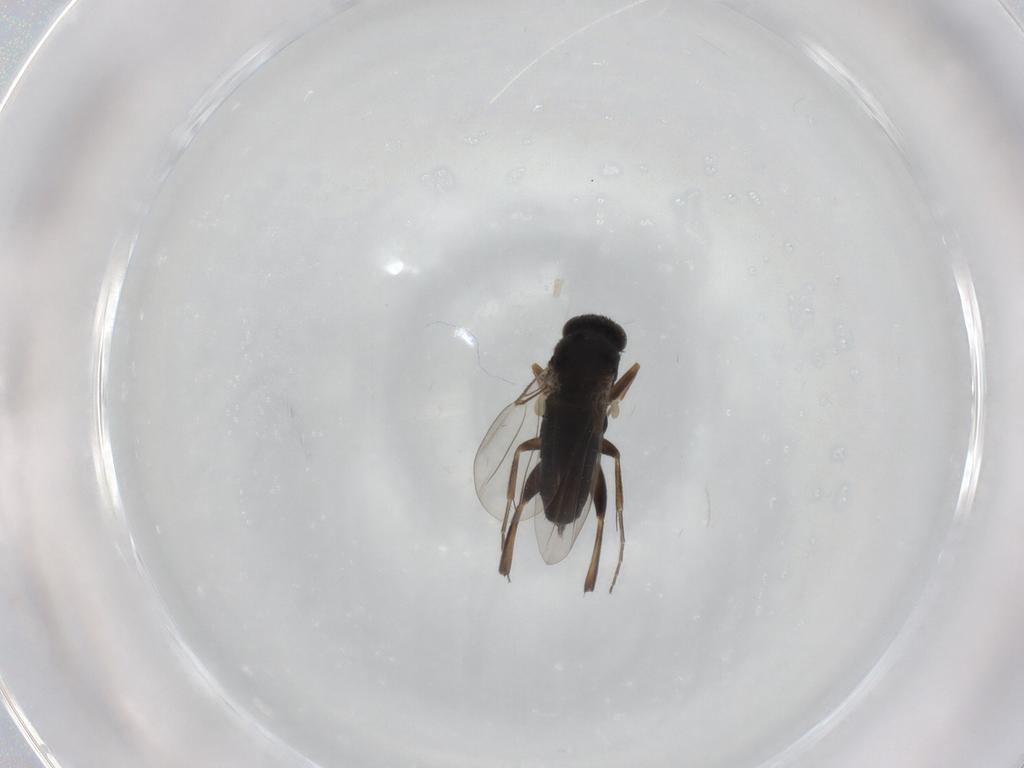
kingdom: Animalia
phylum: Arthropoda
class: Insecta
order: Diptera
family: Phoridae
